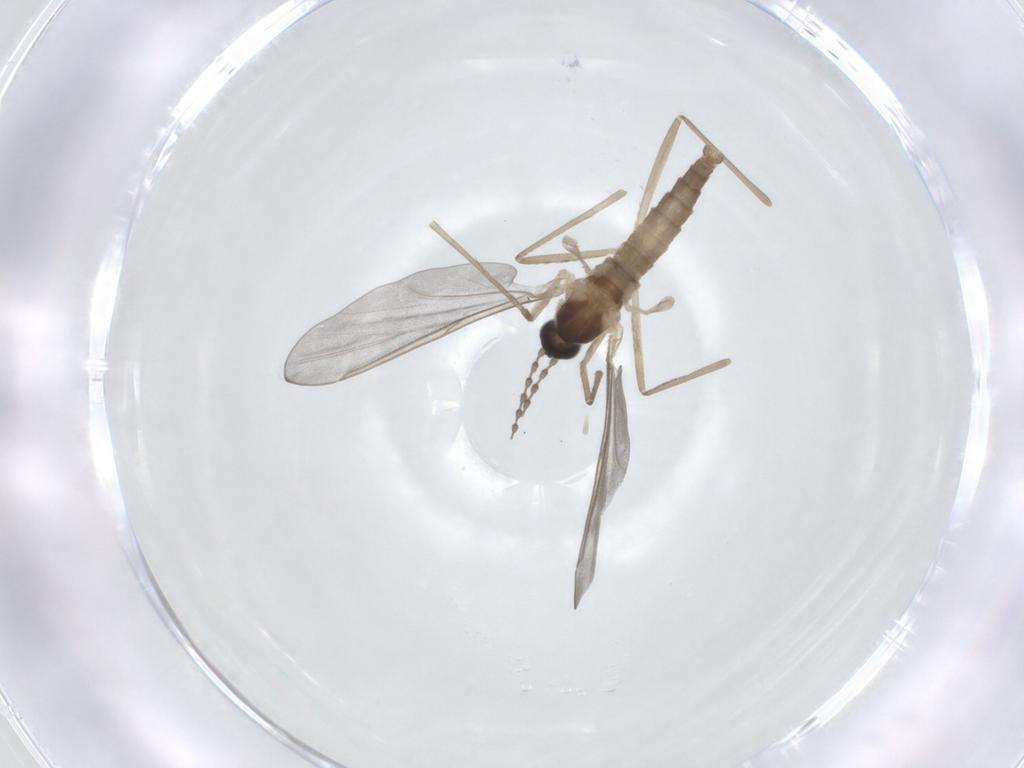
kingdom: Animalia
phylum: Arthropoda
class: Insecta
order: Diptera
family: Cecidomyiidae
